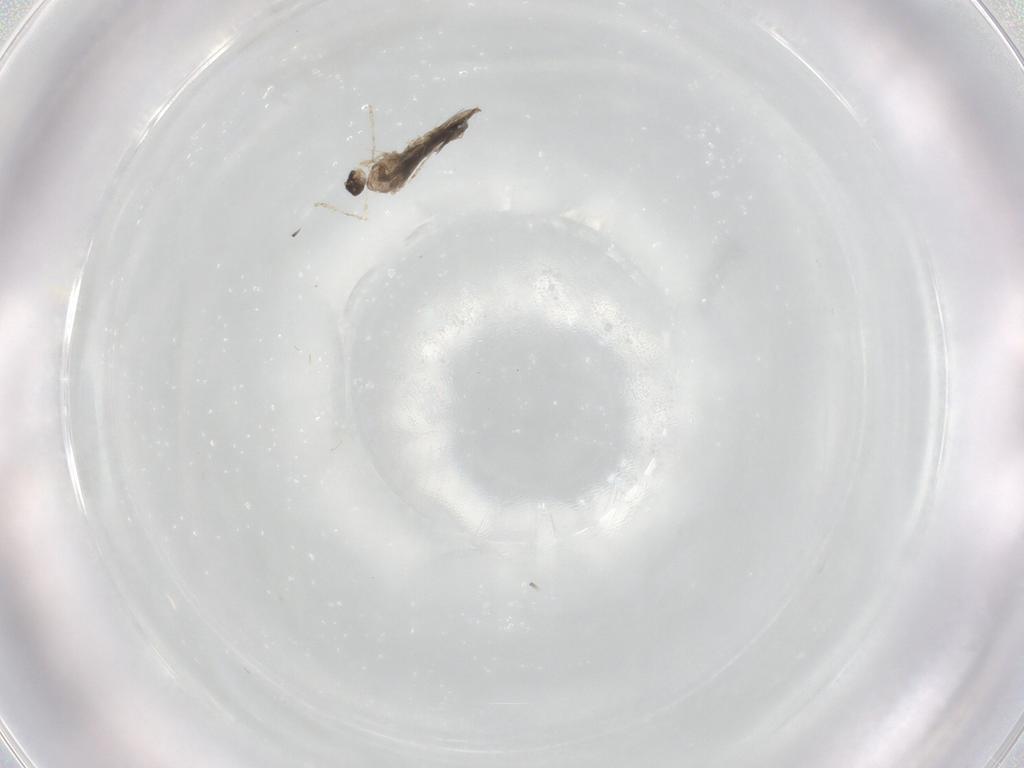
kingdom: Animalia
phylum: Arthropoda
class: Insecta
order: Diptera
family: Cecidomyiidae
